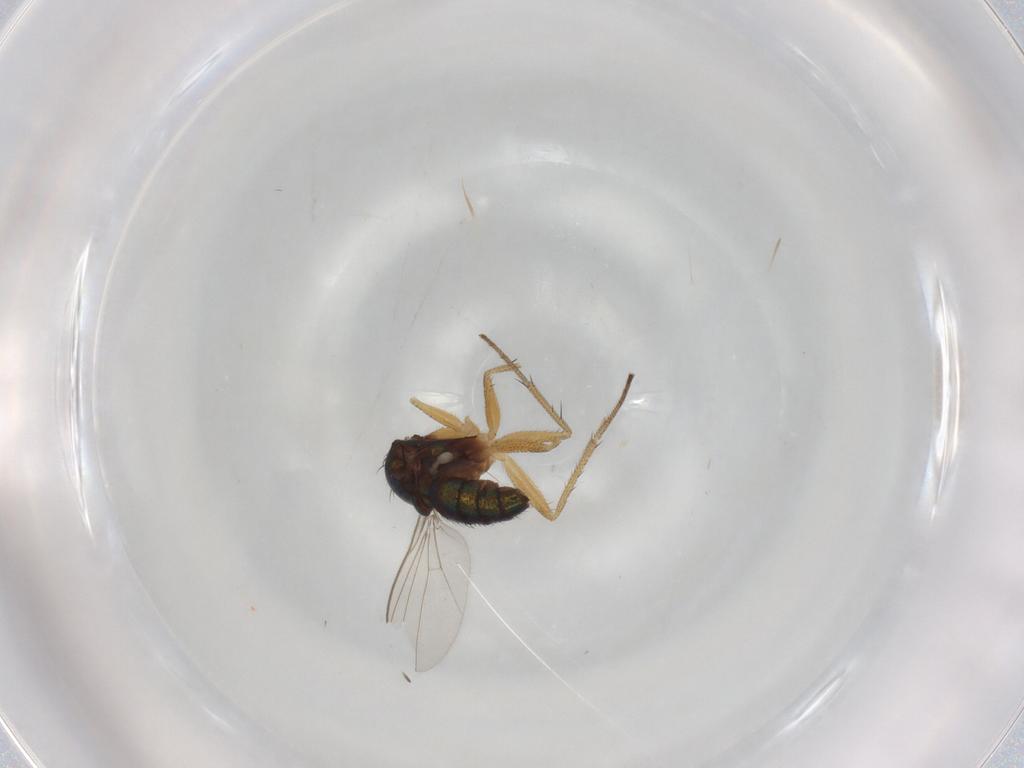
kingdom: Animalia
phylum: Arthropoda
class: Insecta
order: Diptera
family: Dolichopodidae
